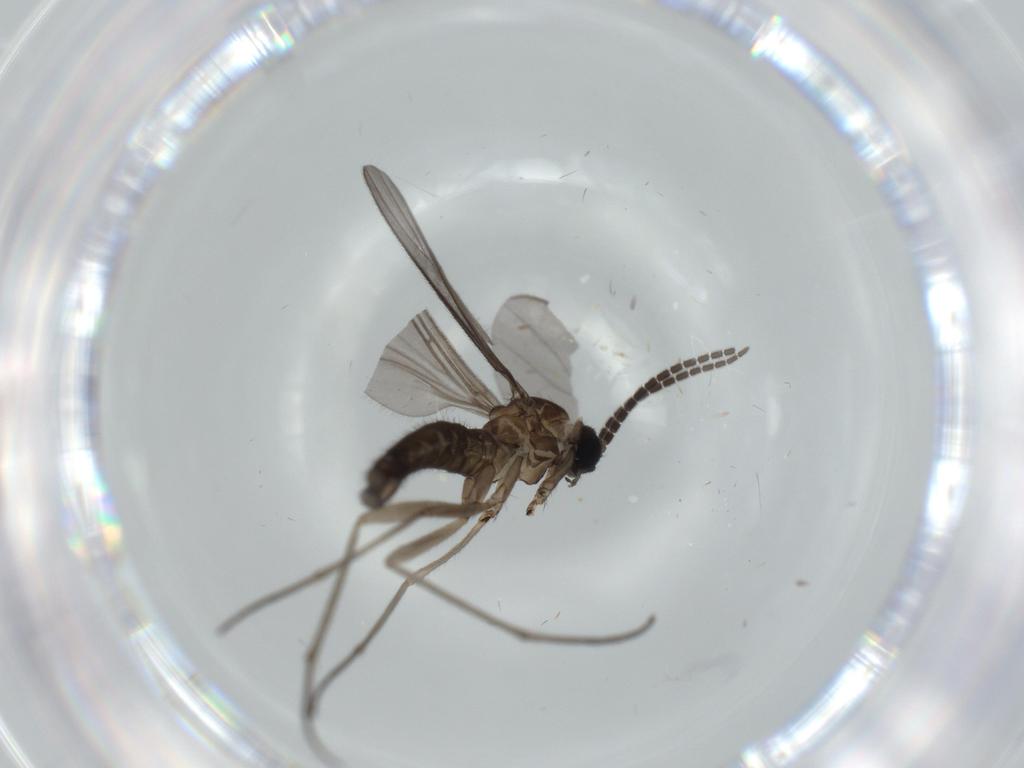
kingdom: Animalia
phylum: Arthropoda
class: Insecta
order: Diptera
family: Sciaridae
